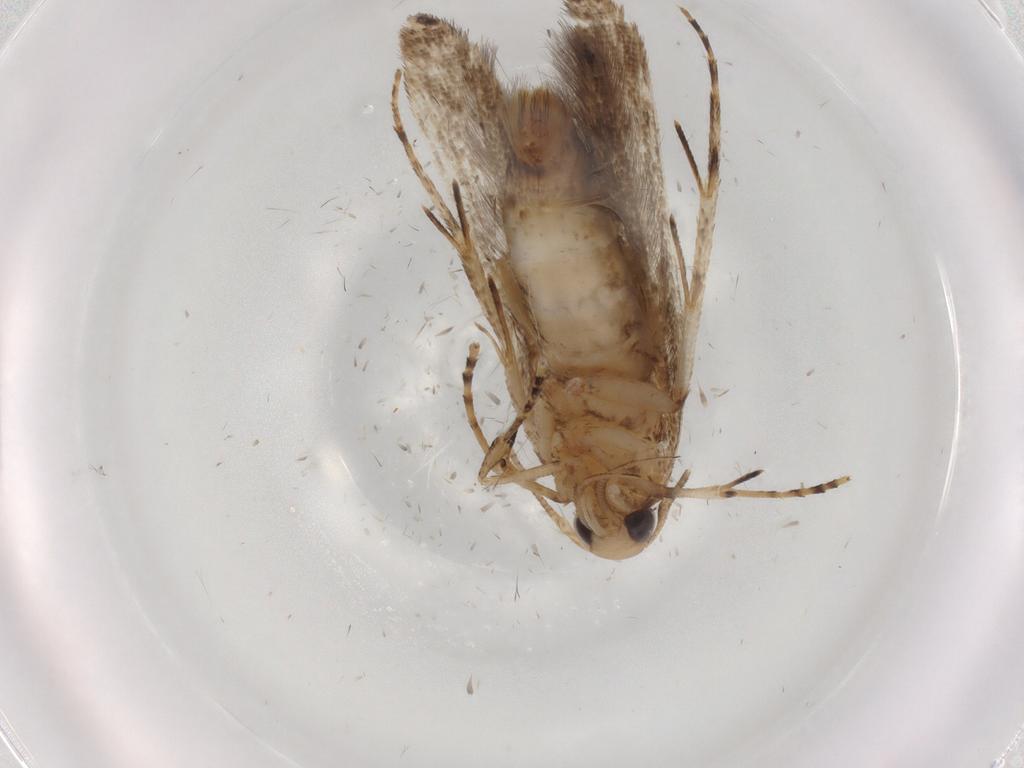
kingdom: Animalia
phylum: Arthropoda
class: Insecta
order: Lepidoptera
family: Cosmopterigidae
